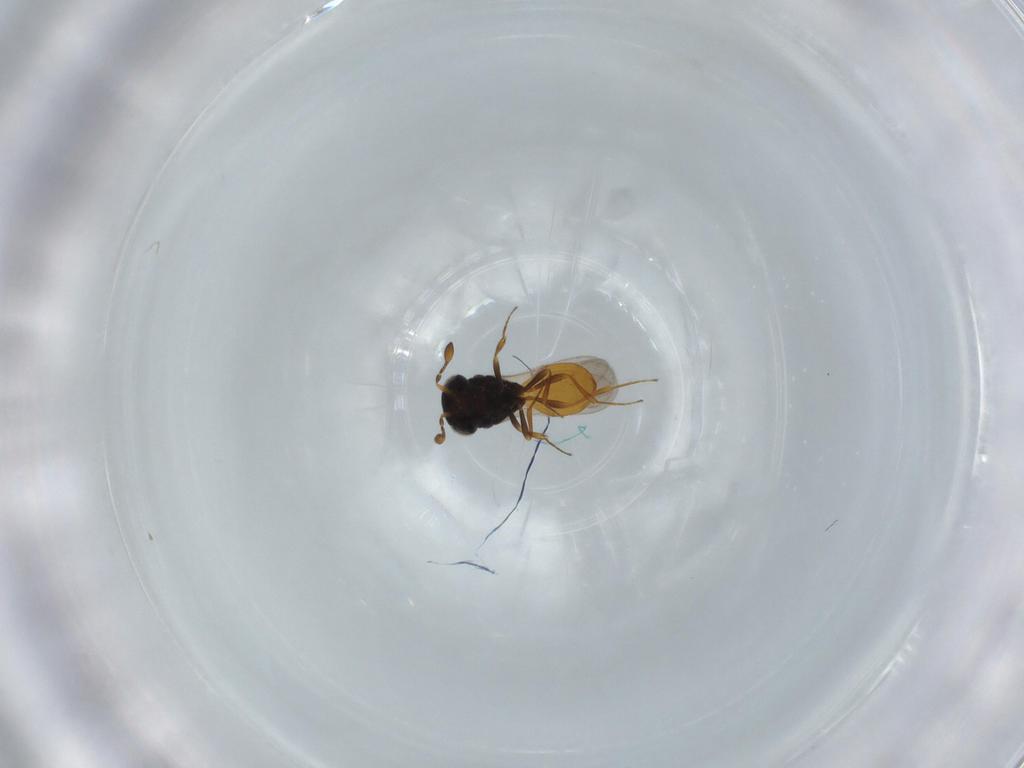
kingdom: Animalia
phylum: Arthropoda
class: Insecta
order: Hymenoptera
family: Scelionidae
